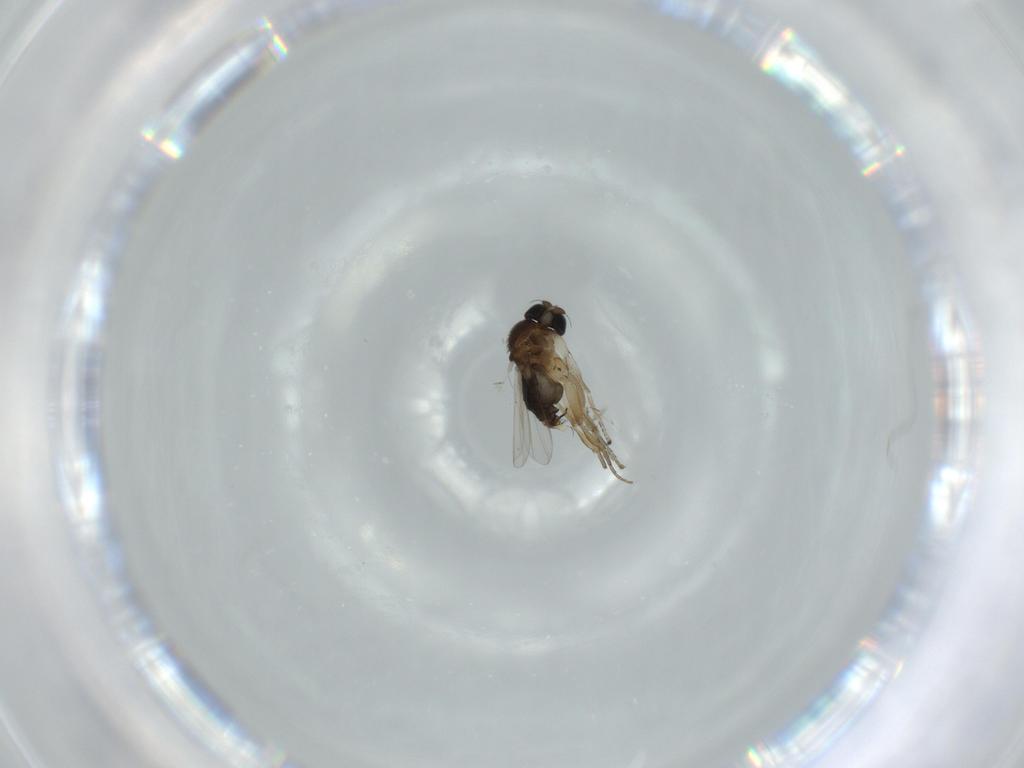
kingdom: Animalia
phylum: Arthropoda
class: Insecta
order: Diptera
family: Phoridae
